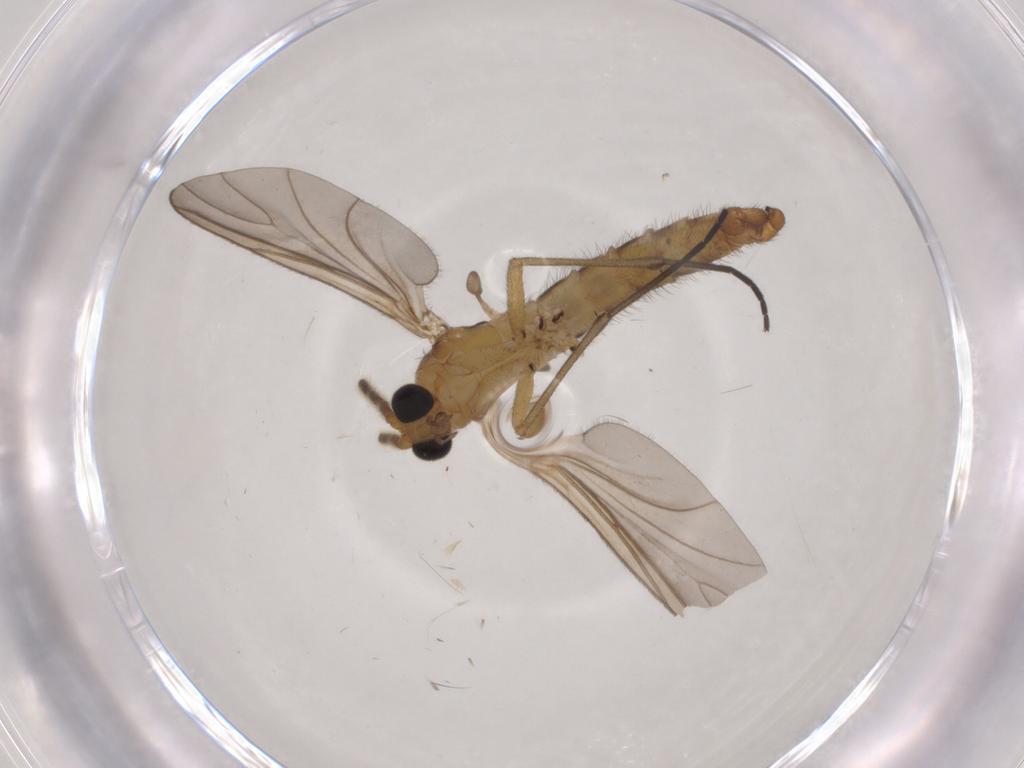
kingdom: Animalia
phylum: Arthropoda
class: Insecta
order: Diptera
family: Sciaridae
